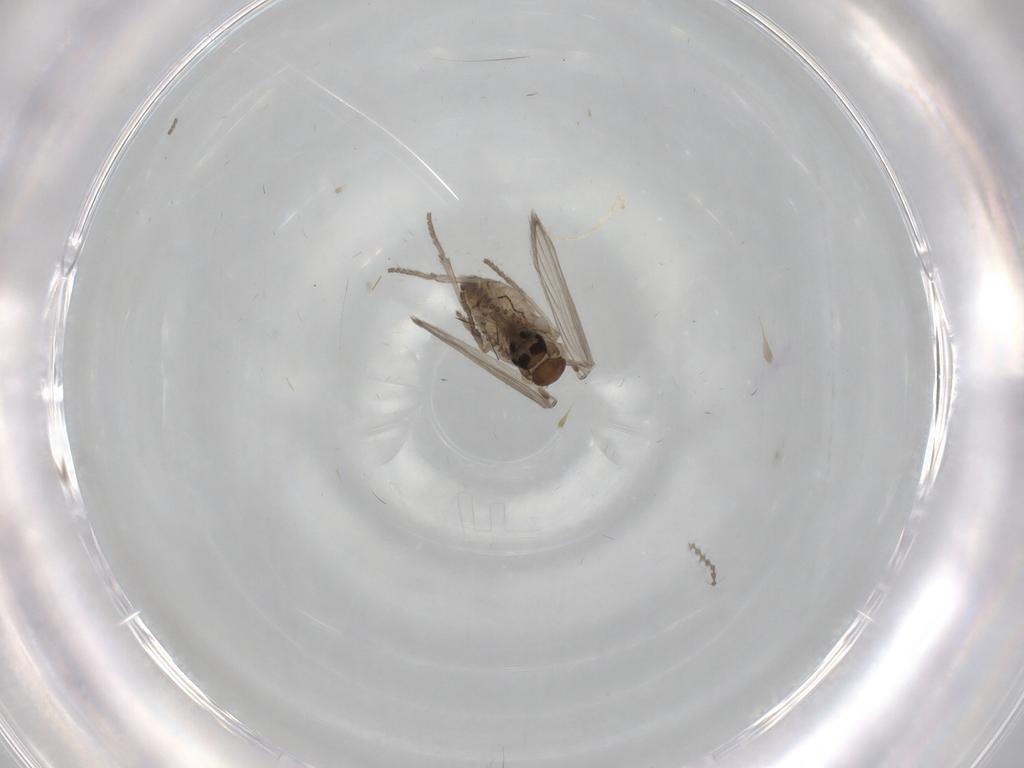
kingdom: Animalia
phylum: Arthropoda
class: Insecta
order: Diptera
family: Psychodidae
